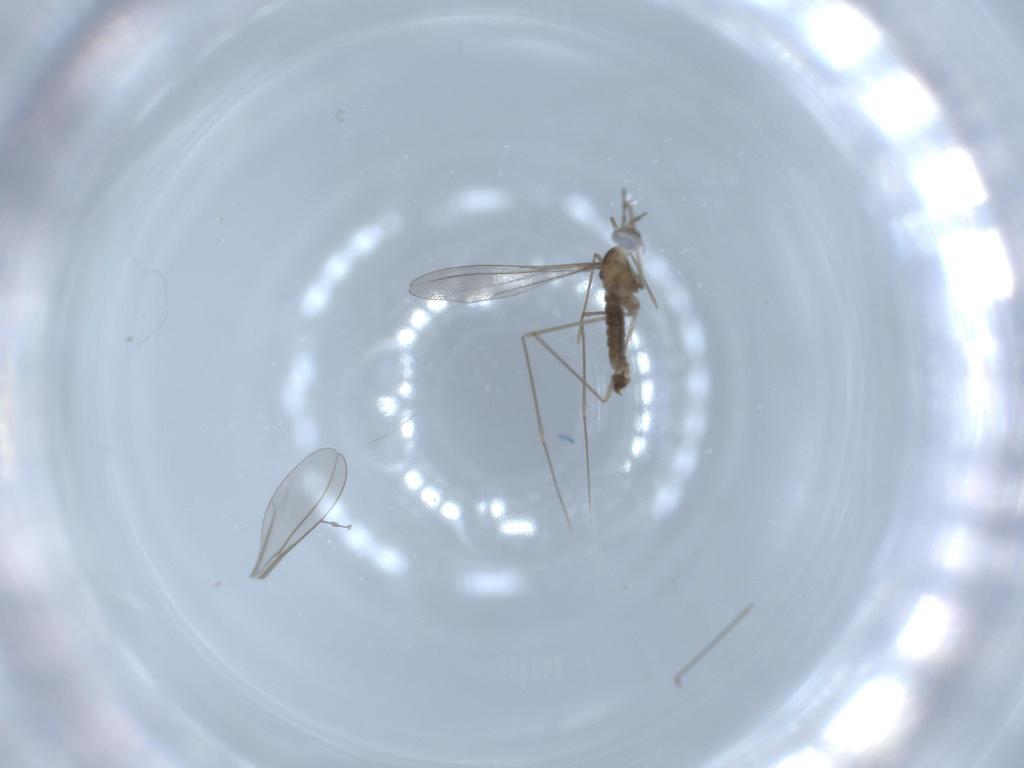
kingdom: Animalia
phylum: Arthropoda
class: Insecta
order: Diptera
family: Cecidomyiidae
